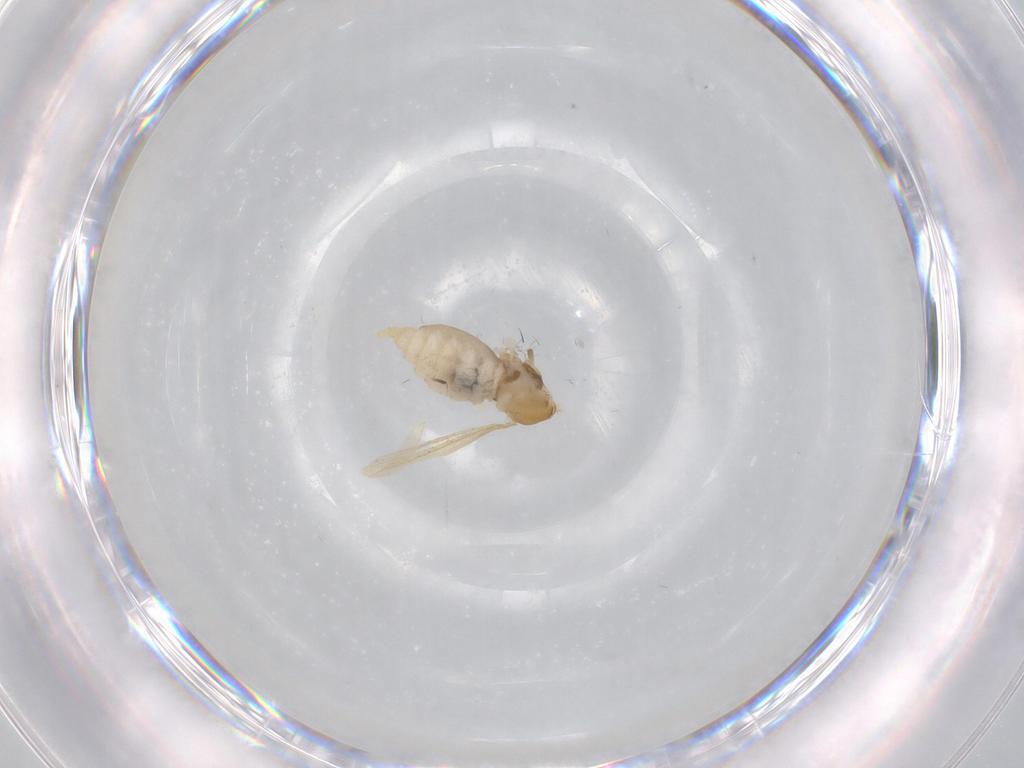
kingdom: Animalia
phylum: Arthropoda
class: Insecta
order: Diptera
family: Cecidomyiidae
